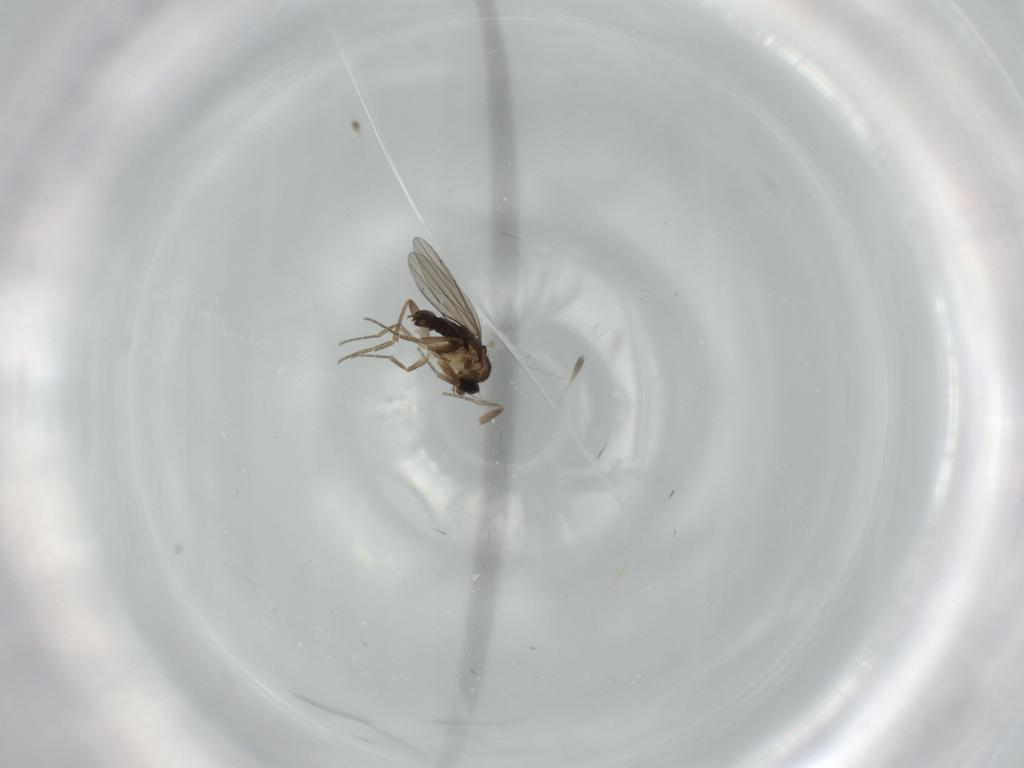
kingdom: Animalia
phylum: Arthropoda
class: Insecta
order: Diptera
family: Phoridae
